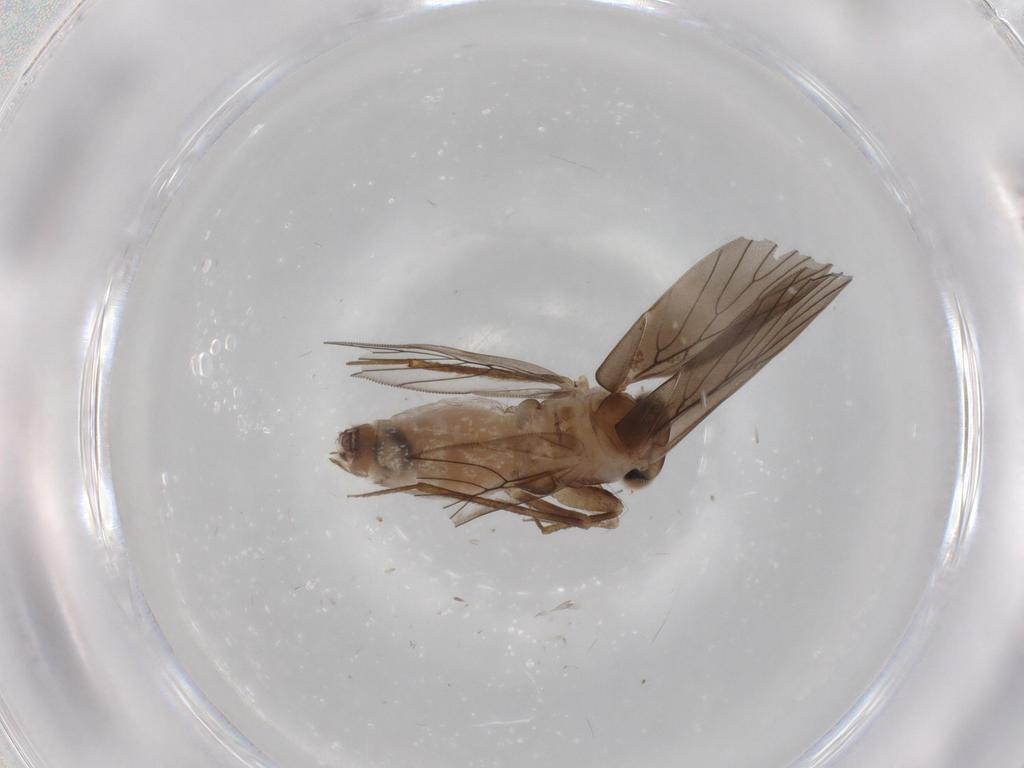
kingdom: Animalia
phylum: Arthropoda
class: Insecta
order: Psocodea
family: Lepidopsocidae
